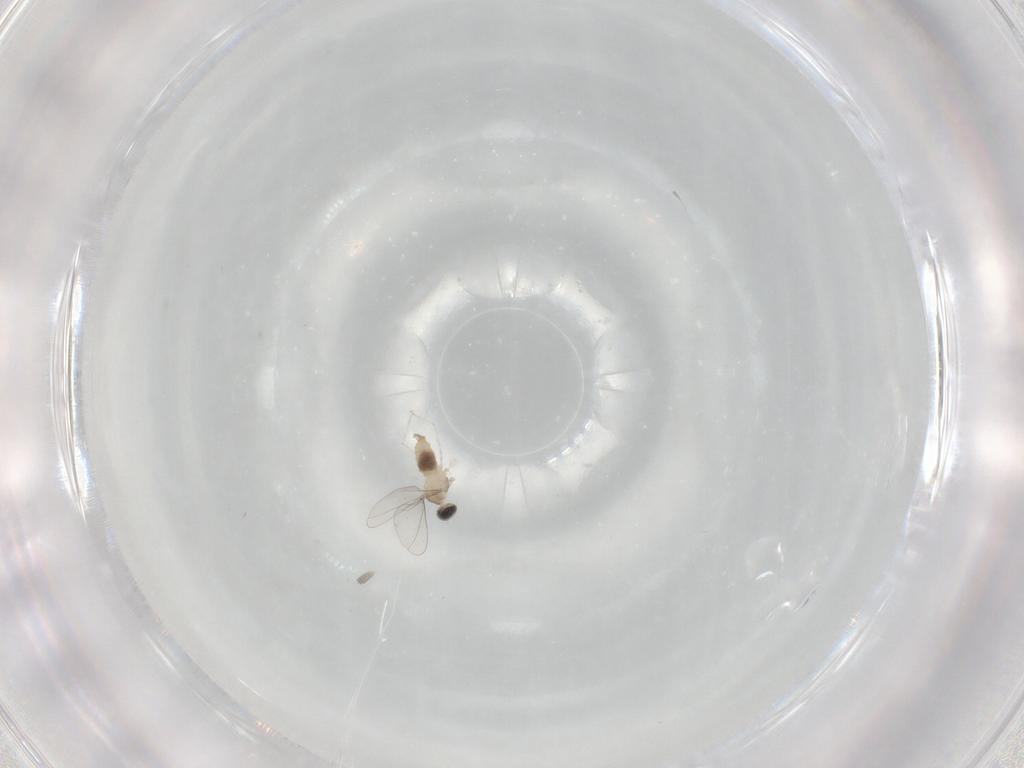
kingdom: Animalia
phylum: Arthropoda
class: Insecta
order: Diptera
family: Cecidomyiidae
